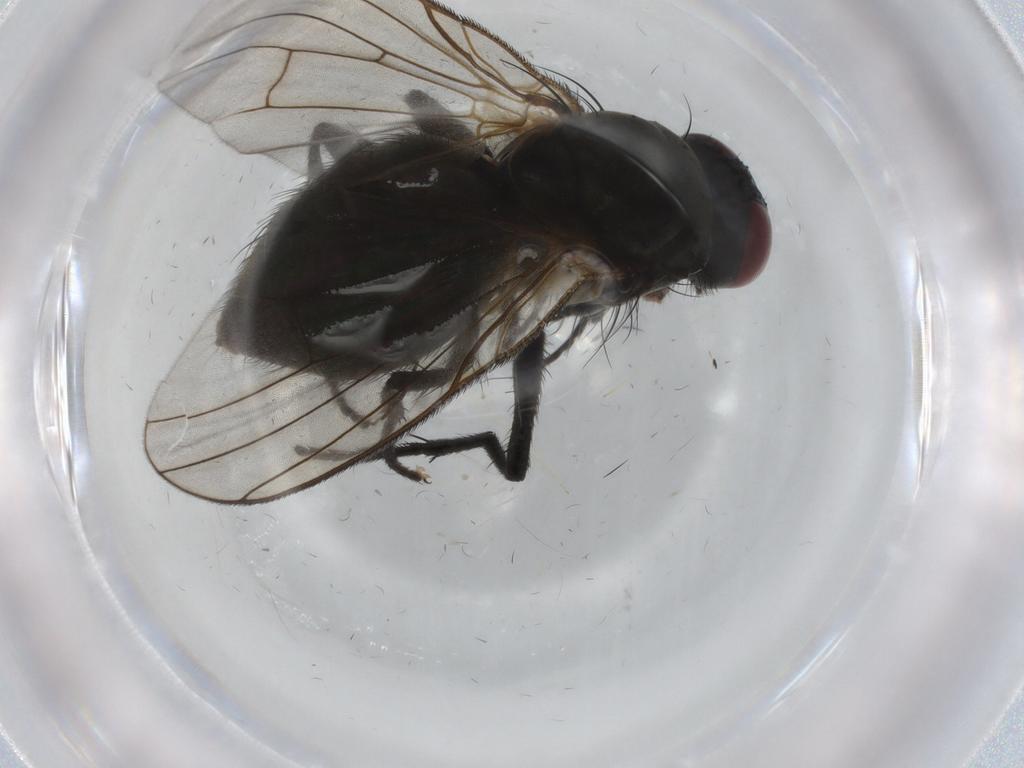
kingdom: Animalia
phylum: Arthropoda
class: Insecta
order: Diptera
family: Muscidae
